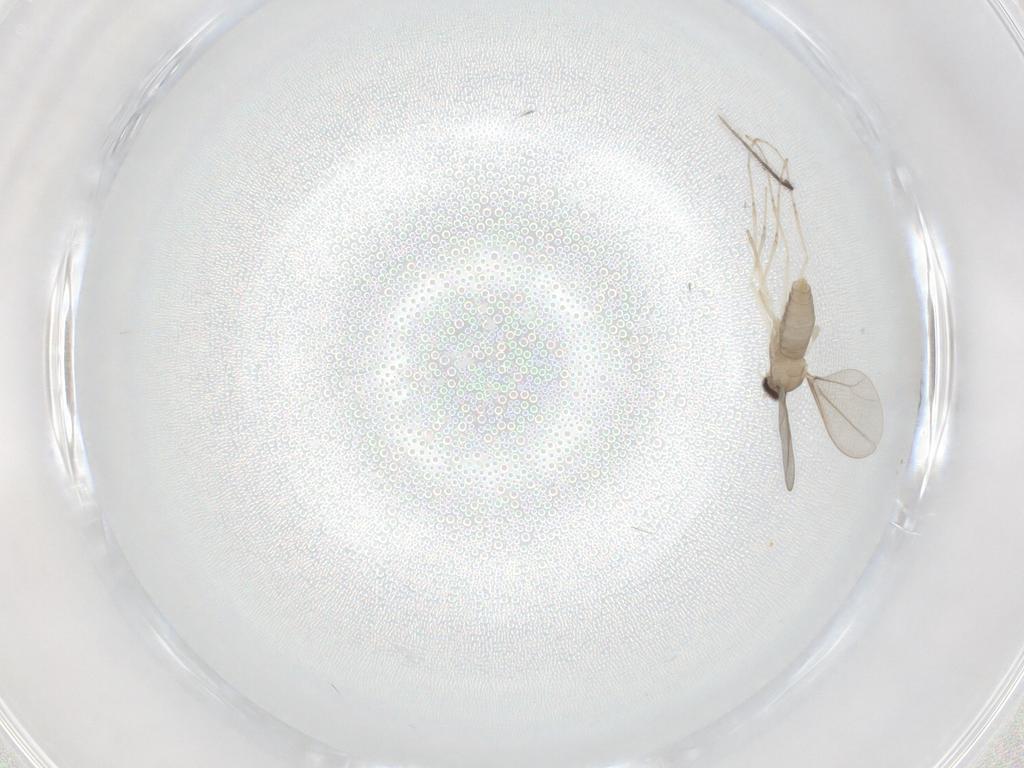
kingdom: Animalia
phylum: Arthropoda
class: Insecta
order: Diptera
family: Cecidomyiidae
